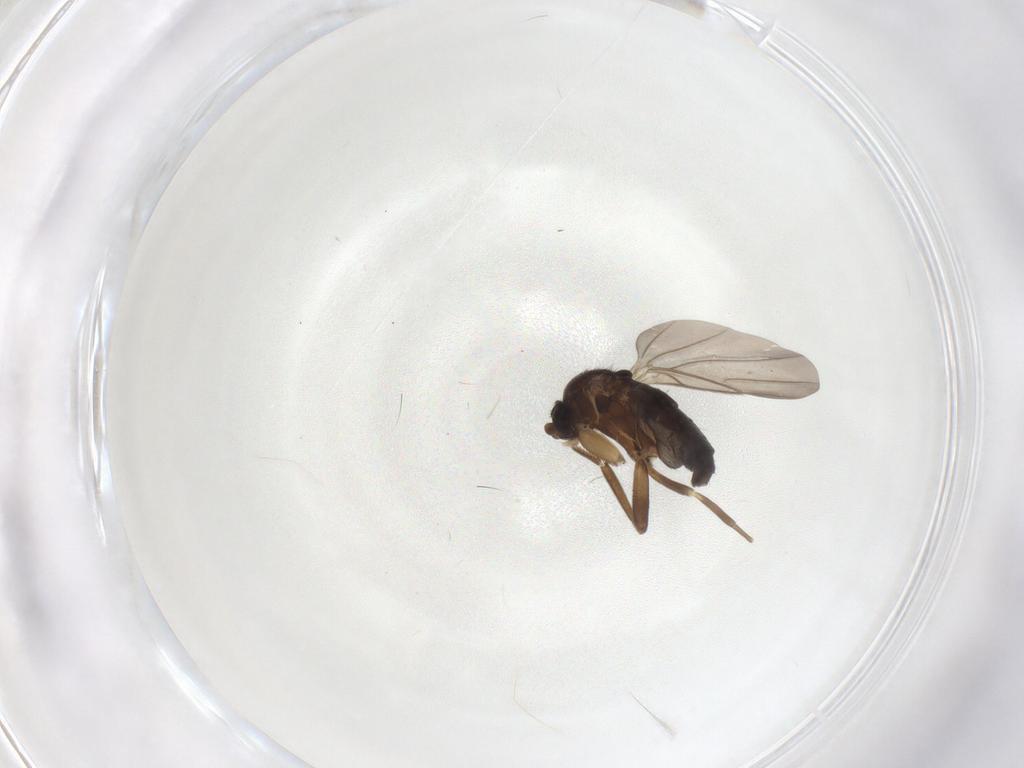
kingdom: Animalia
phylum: Arthropoda
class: Insecta
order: Diptera
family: Phoridae
